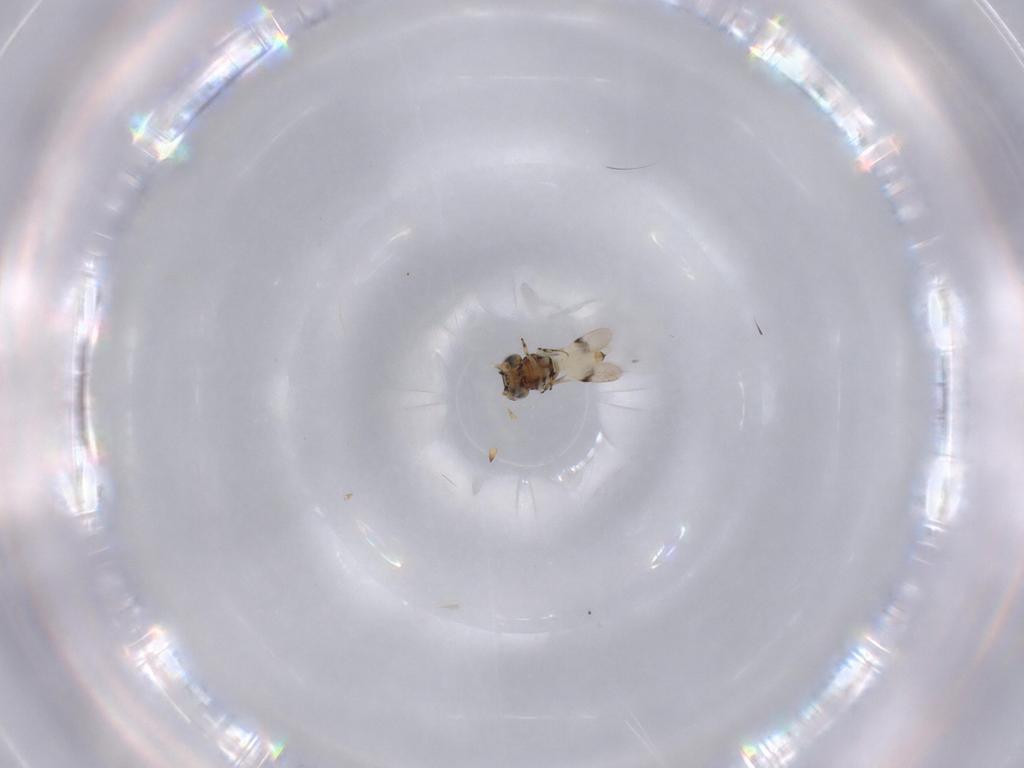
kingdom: Animalia
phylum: Arthropoda
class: Insecta
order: Hymenoptera
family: Scelionidae
